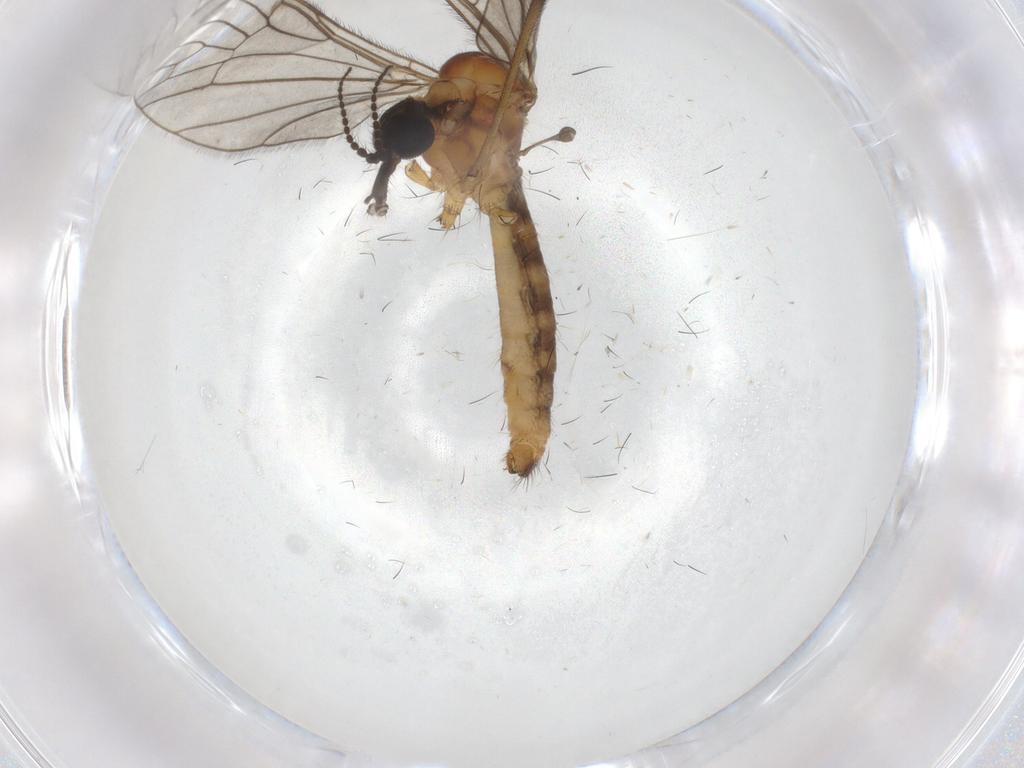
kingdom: Animalia
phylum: Arthropoda
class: Insecta
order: Diptera
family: Limoniidae
